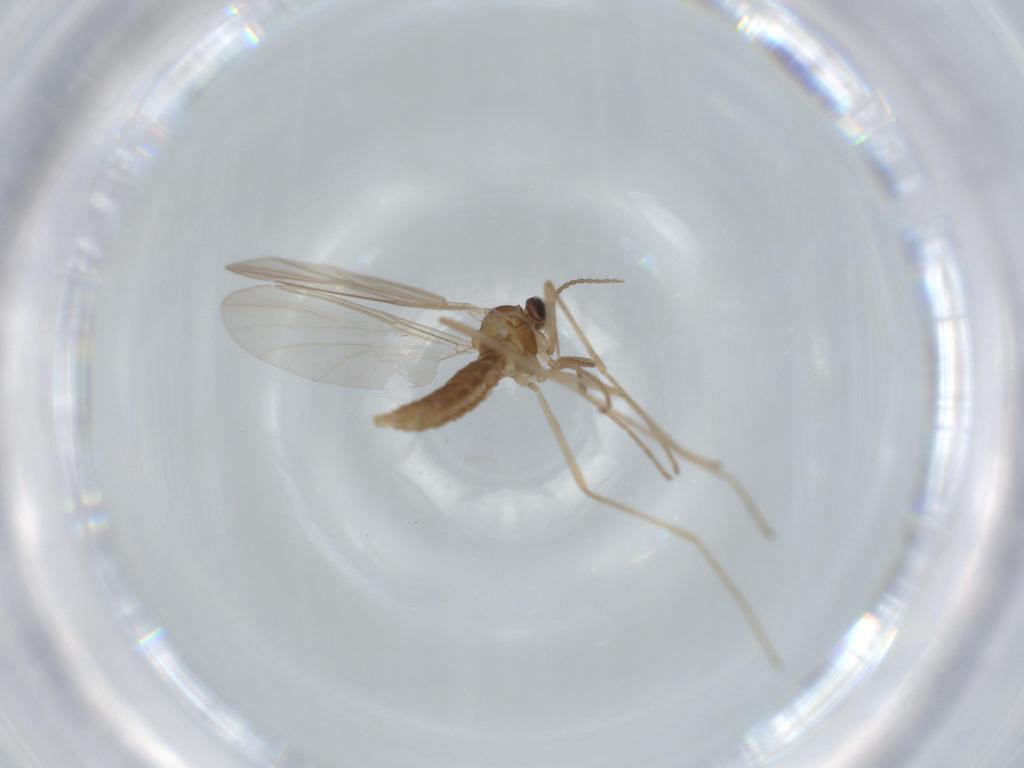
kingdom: Animalia
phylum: Arthropoda
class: Insecta
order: Diptera
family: Cecidomyiidae
